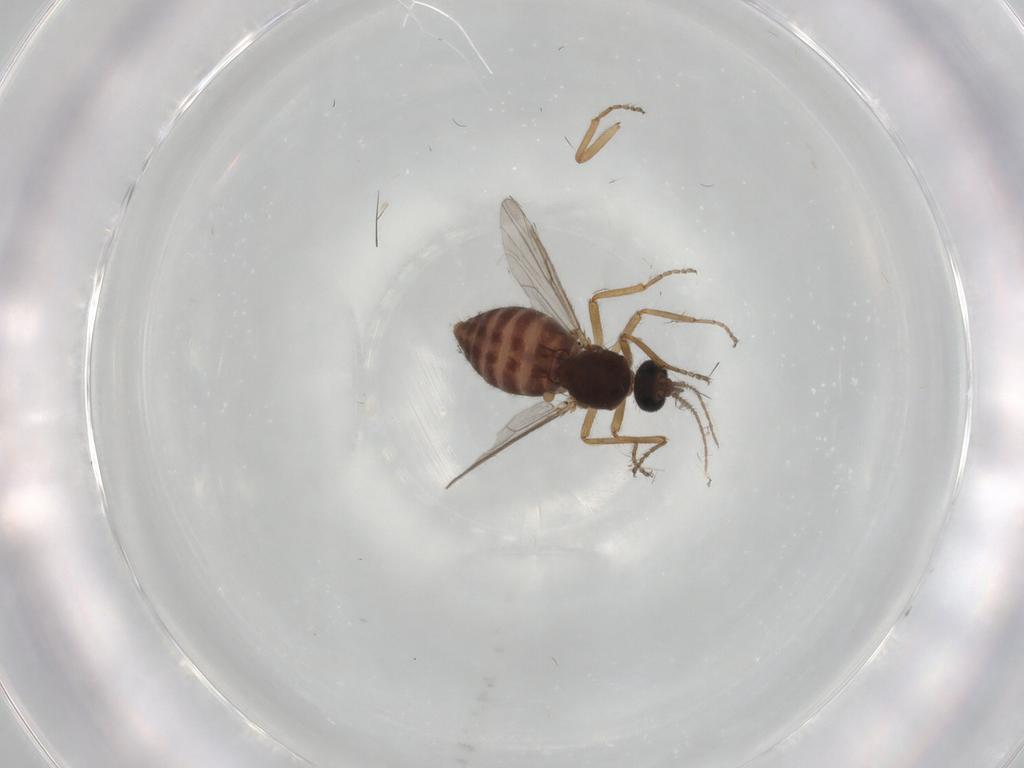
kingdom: Animalia
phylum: Arthropoda
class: Insecta
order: Diptera
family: Ceratopogonidae
